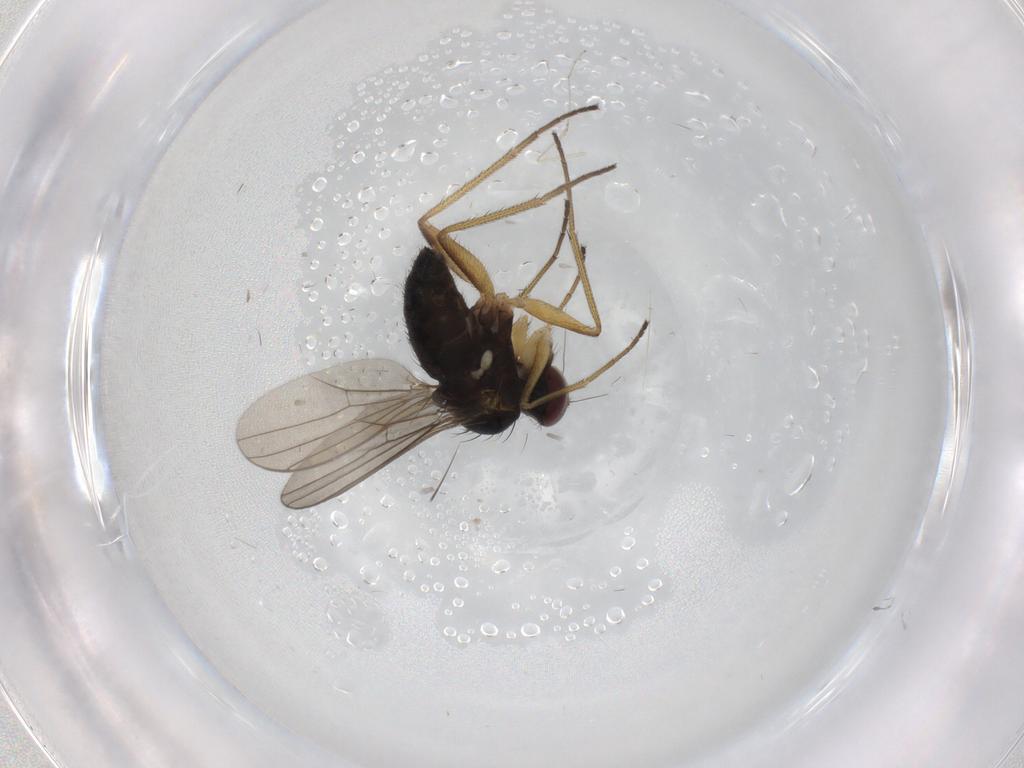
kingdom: Animalia
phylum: Arthropoda
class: Insecta
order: Diptera
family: Dolichopodidae
